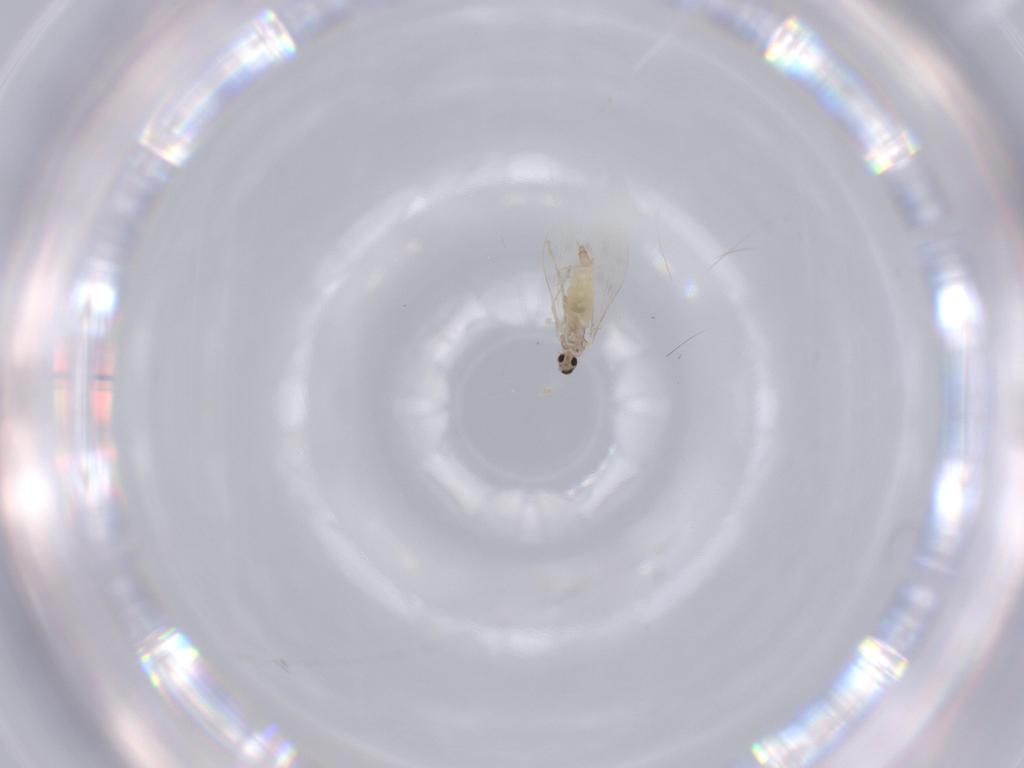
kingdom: Animalia
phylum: Arthropoda
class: Insecta
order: Diptera
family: Cecidomyiidae
